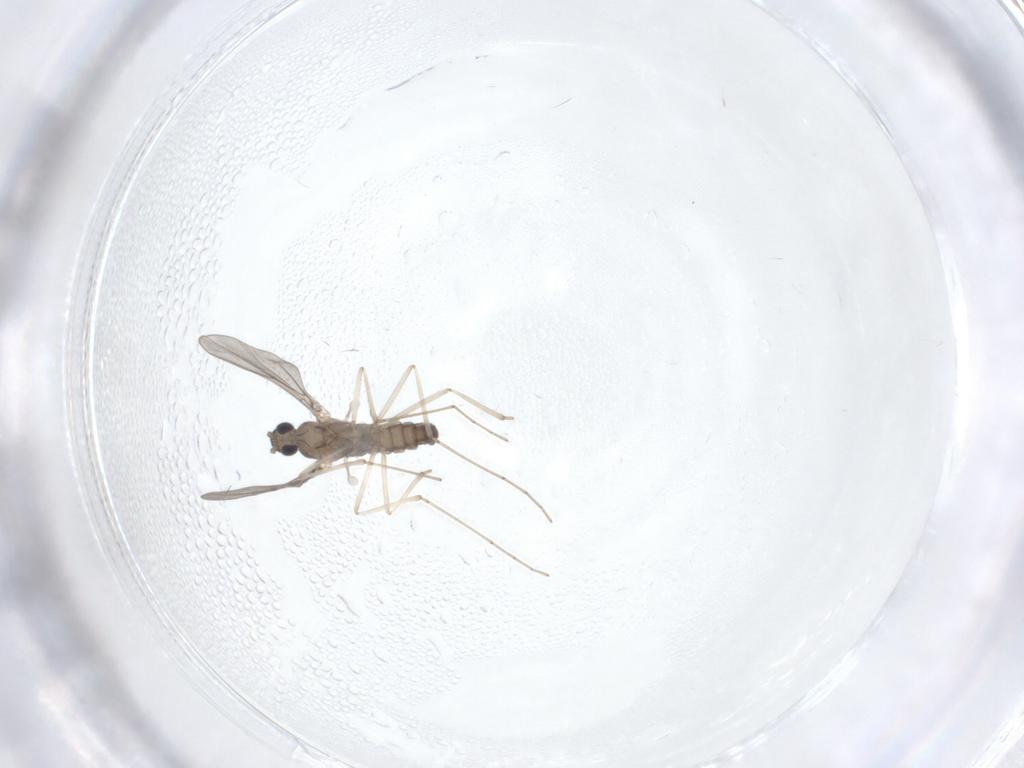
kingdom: Animalia
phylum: Arthropoda
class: Insecta
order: Diptera
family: Cecidomyiidae
